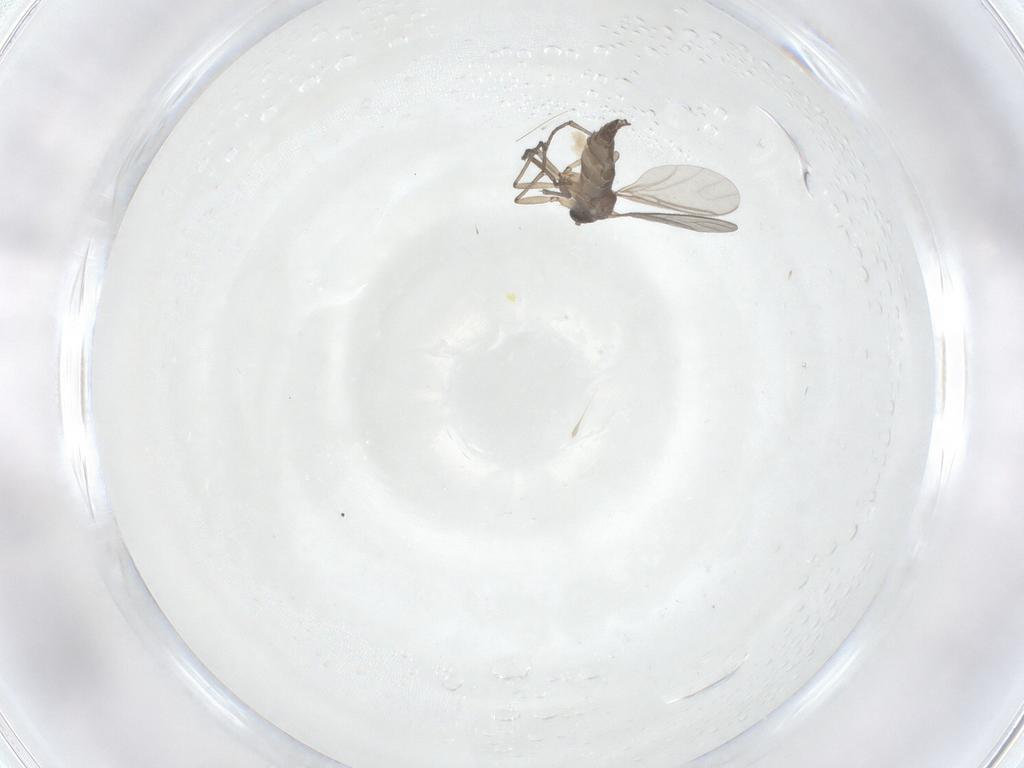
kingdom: Animalia
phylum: Arthropoda
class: Insecta
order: Diptera
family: Sciaridae
